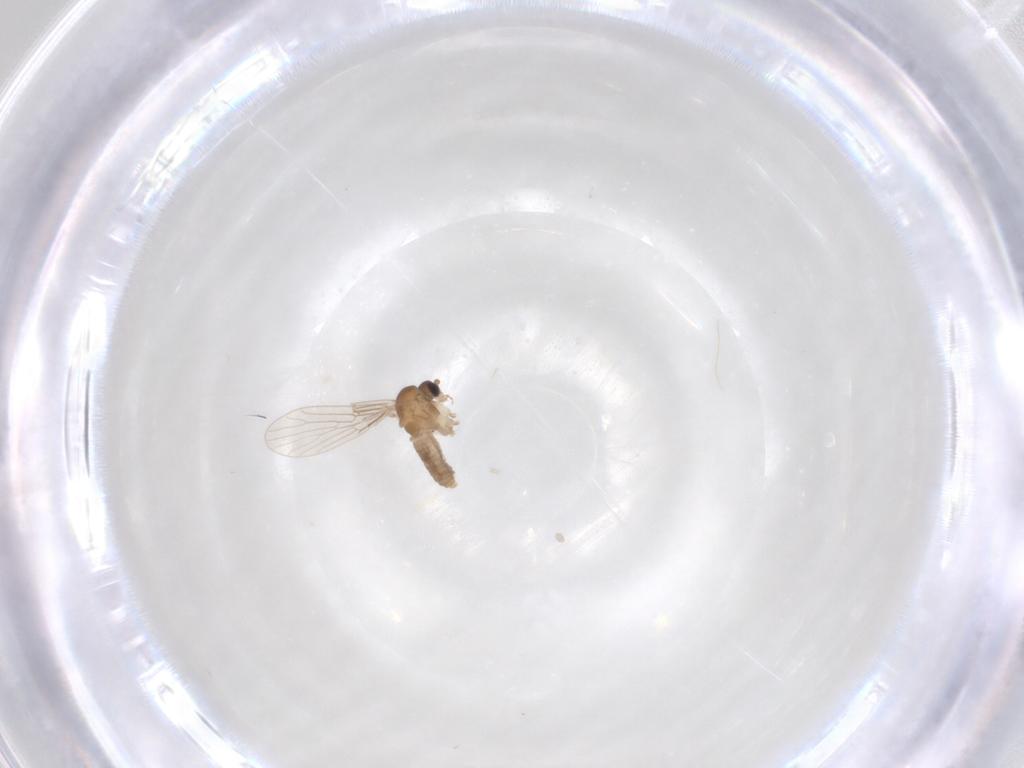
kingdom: Animalia
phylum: Arthropoda
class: Insecta
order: Diptera
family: Psychodidae
